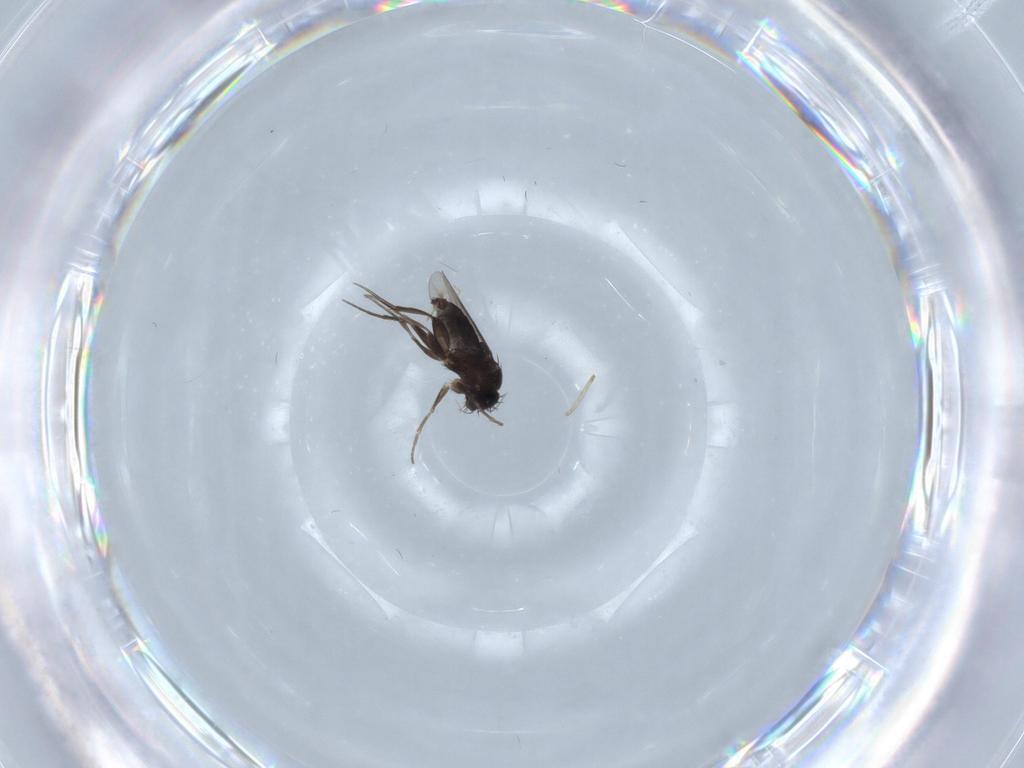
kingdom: Animalia
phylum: Arthropoda
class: Insecta
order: Diptera
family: Phoridae
